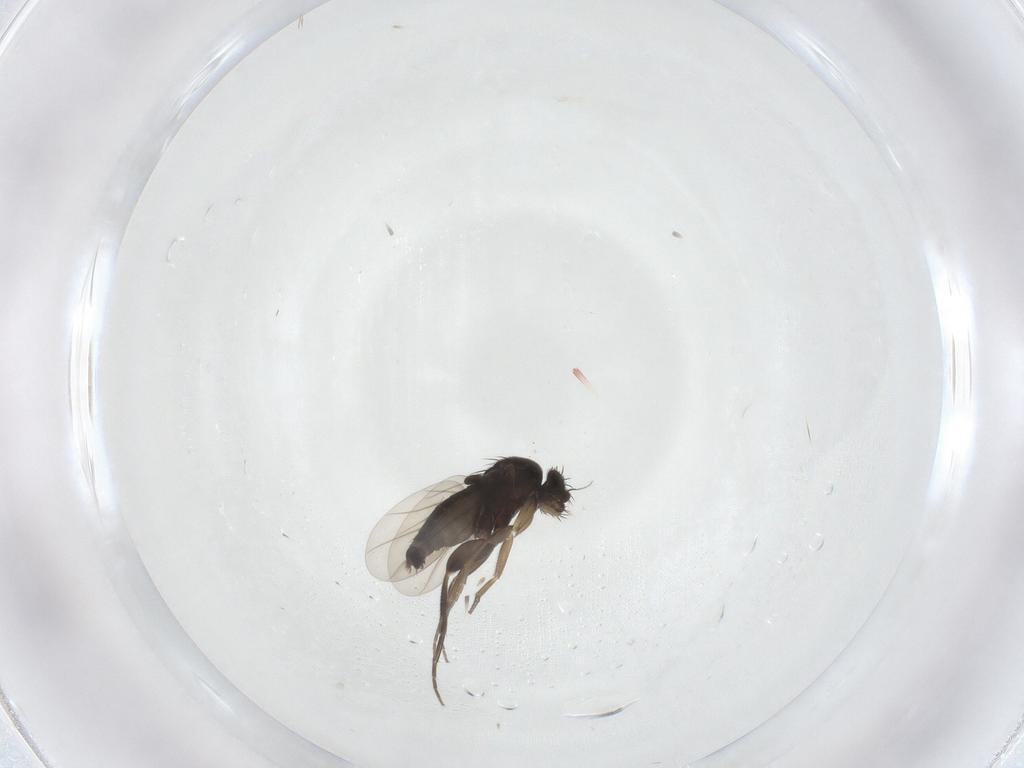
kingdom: Animalia
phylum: Arthropoda
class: Insecta
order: Diptera
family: Phoridae
